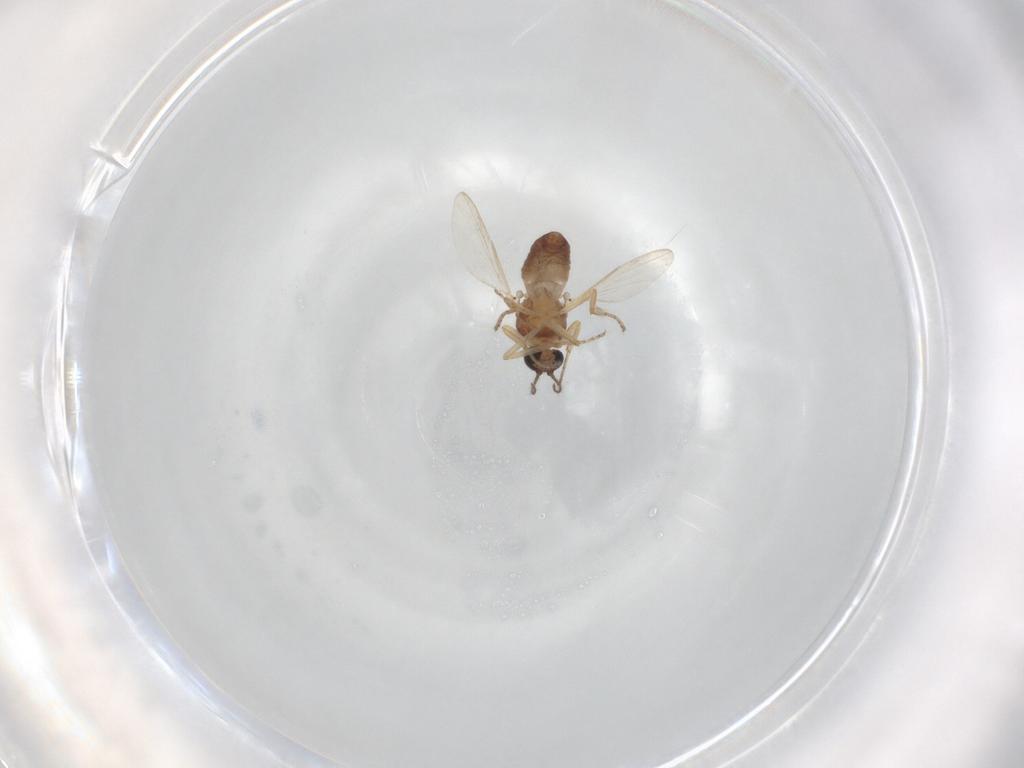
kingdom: Animalia
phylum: Arthropoda
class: Insecta
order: Diptera
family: Ceratopogonidae
